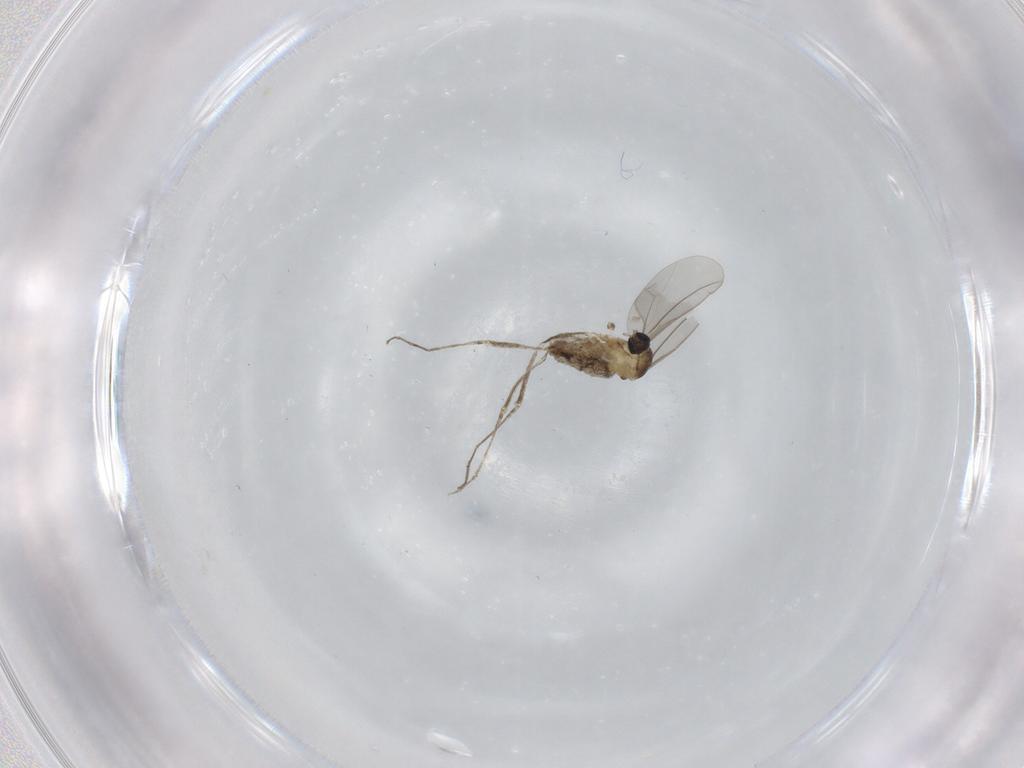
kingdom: Animalia
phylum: Arthropoda
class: Insecta
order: Diptera
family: Cecidomyiidae
